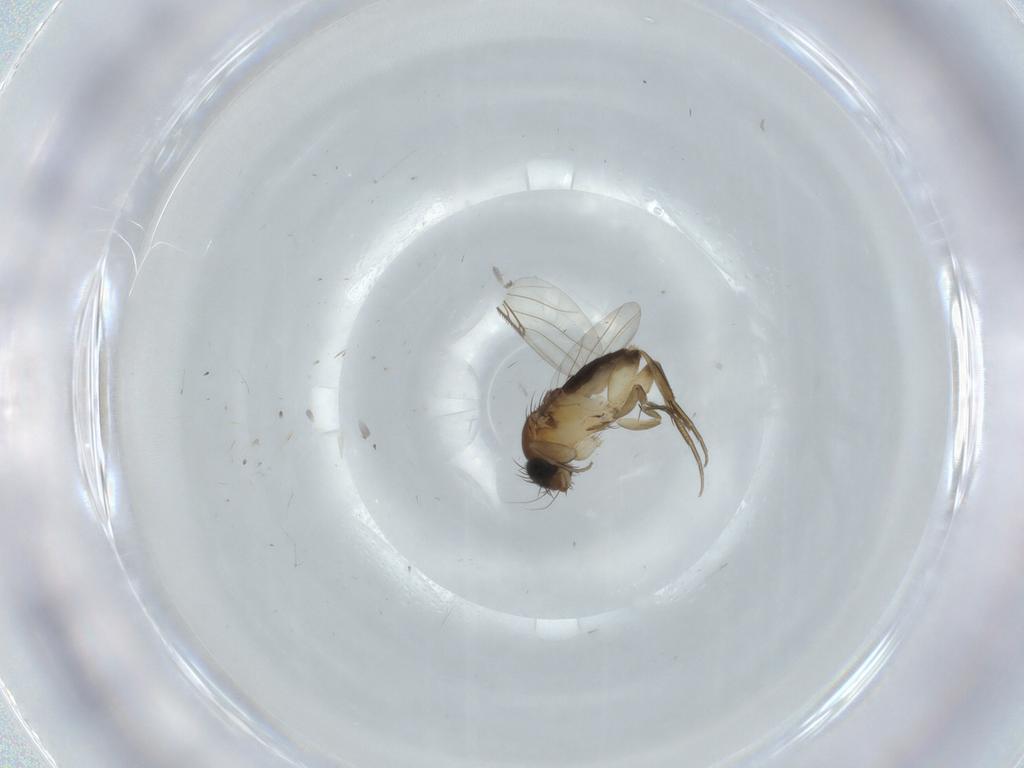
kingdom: Animalia
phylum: Arthropoda
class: Insecta
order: Diptera
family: Phoridae
